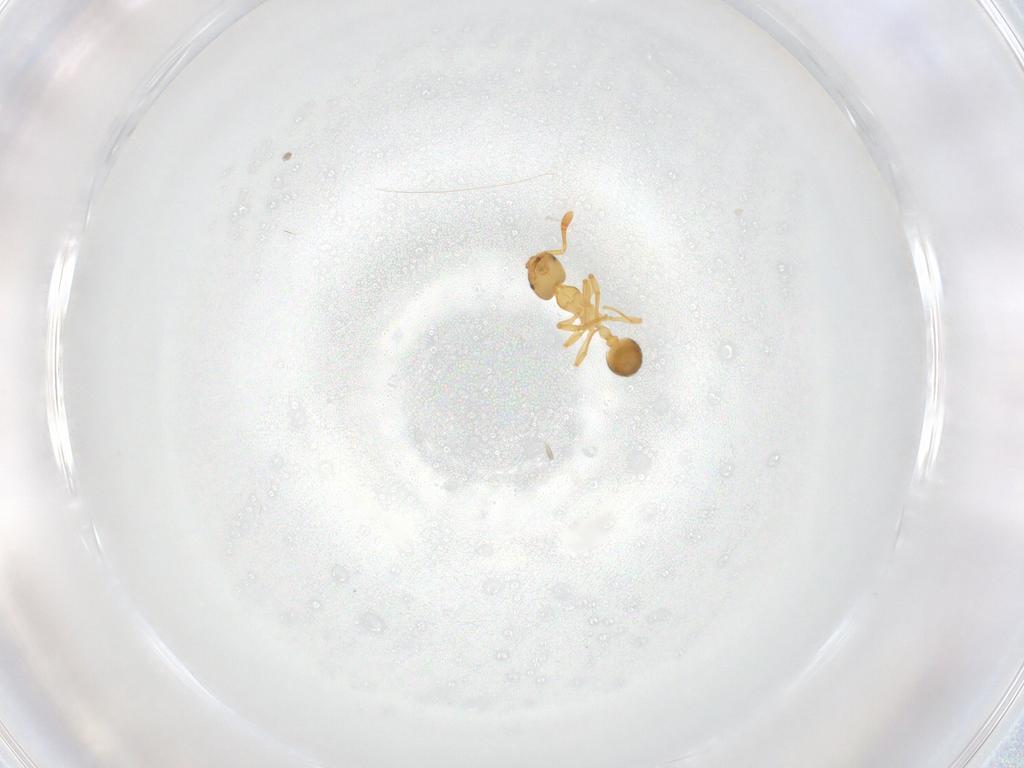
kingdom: Animalia
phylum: Arthropoda
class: Insecta
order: Hymenoptera
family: Formicidae
